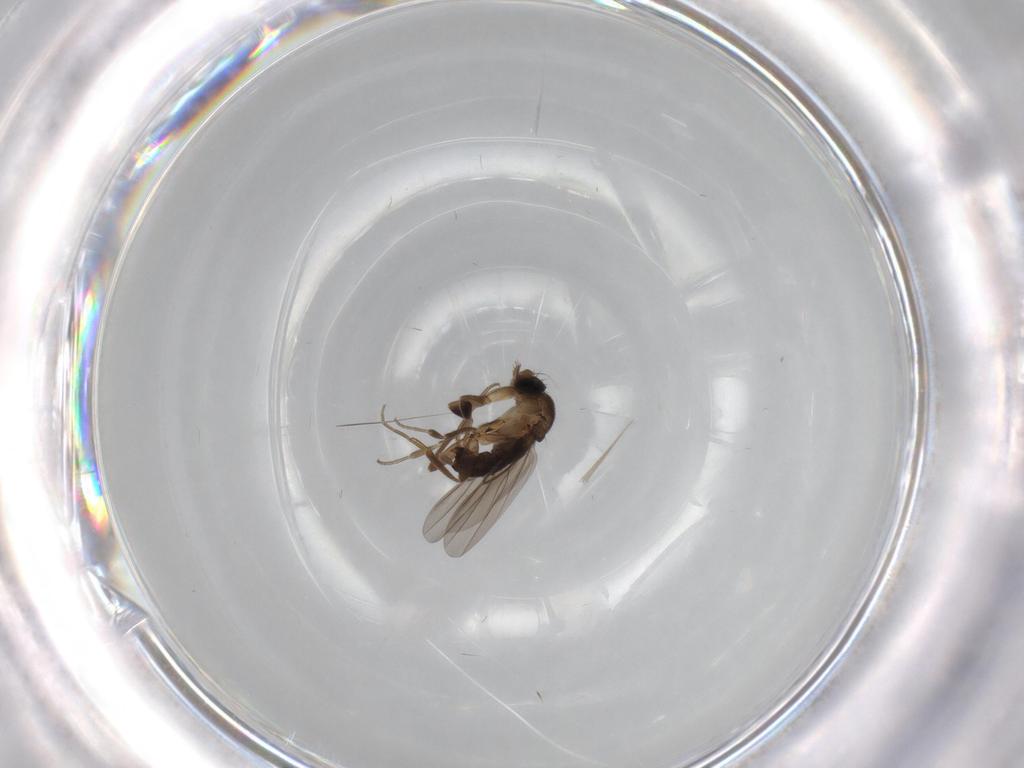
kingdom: Animalia
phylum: Arthropoda
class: Insecta
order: Diptera
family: Phoridae
